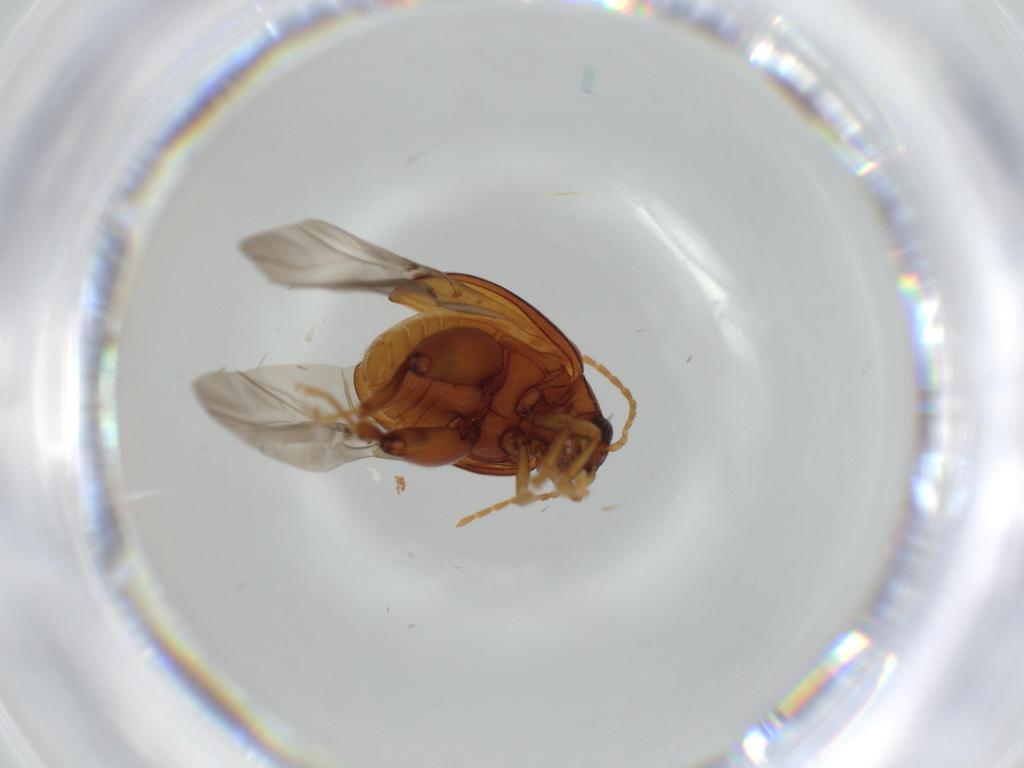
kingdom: Animalia
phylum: Arthropoda
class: Insecta
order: Coleoptera
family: Chrysomelidae
